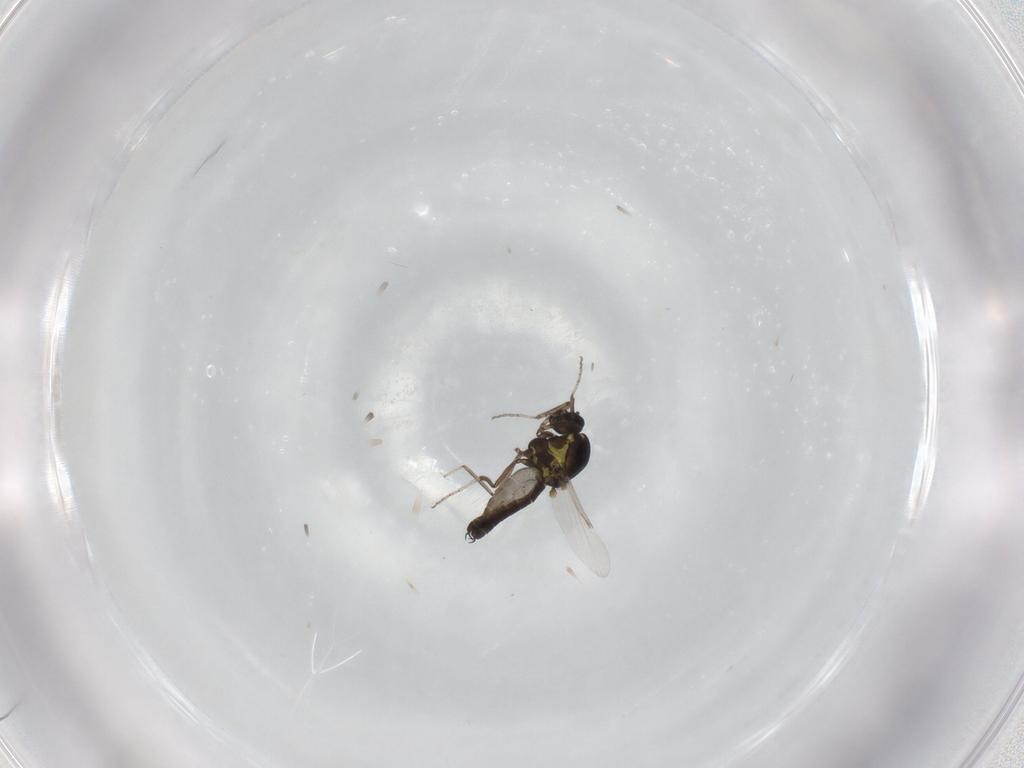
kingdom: Animalia
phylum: Arthropoda
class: Insecta
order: Diptera
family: Ceratopogonidae
